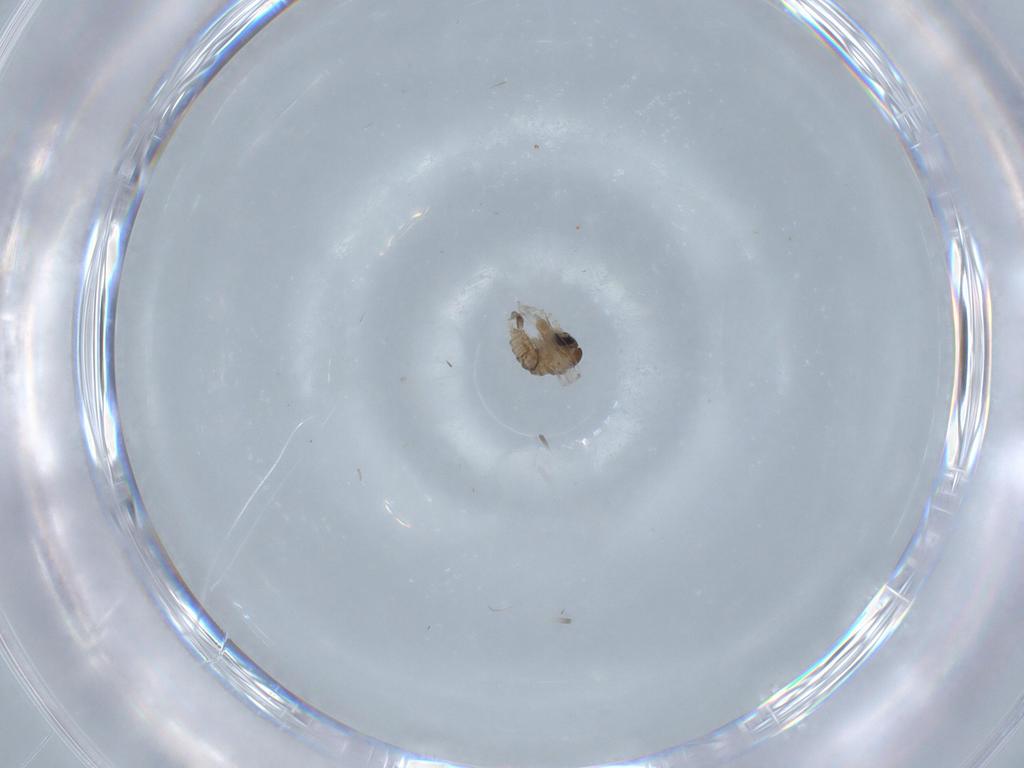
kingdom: Animalia
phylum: Arthropoda
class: Insecta
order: Diptera
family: Psychodidae
